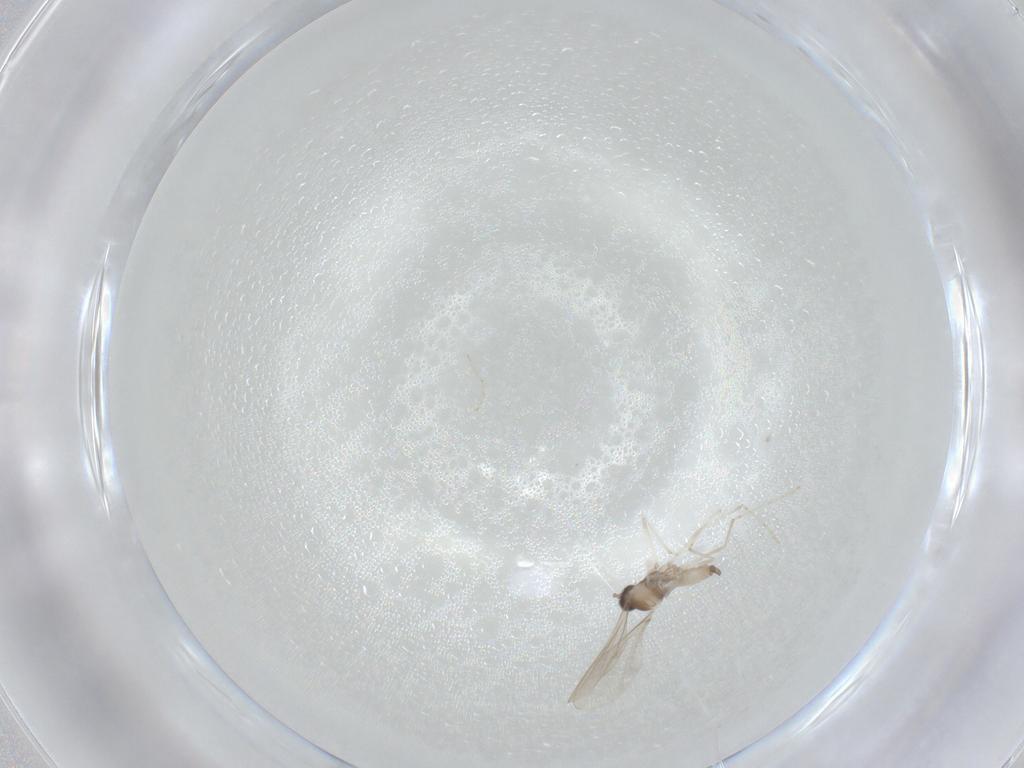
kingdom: Animalia
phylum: Arthropoda
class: Insecta
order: Diptera
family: Cecidomyiidae
